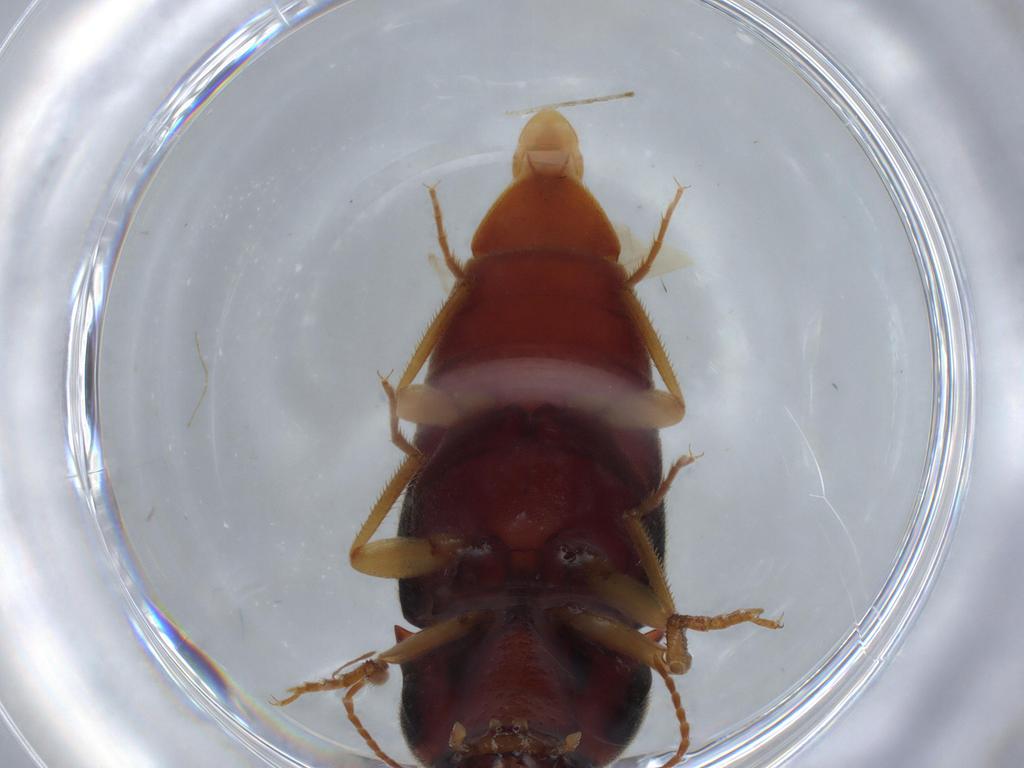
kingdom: Animalia
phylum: Arthropoda
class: Insecta
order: Coleoptera
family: Elateridae
